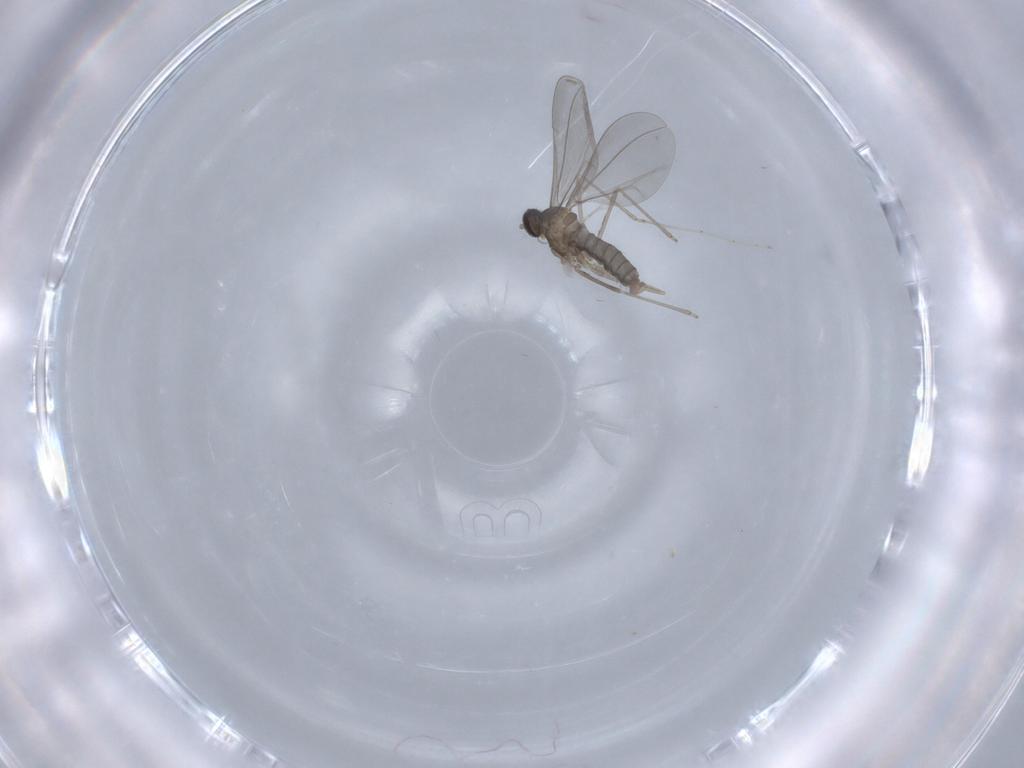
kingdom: Animalia
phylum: Arthropoda
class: Insecta
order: Diptera
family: Cecidomyiidae
